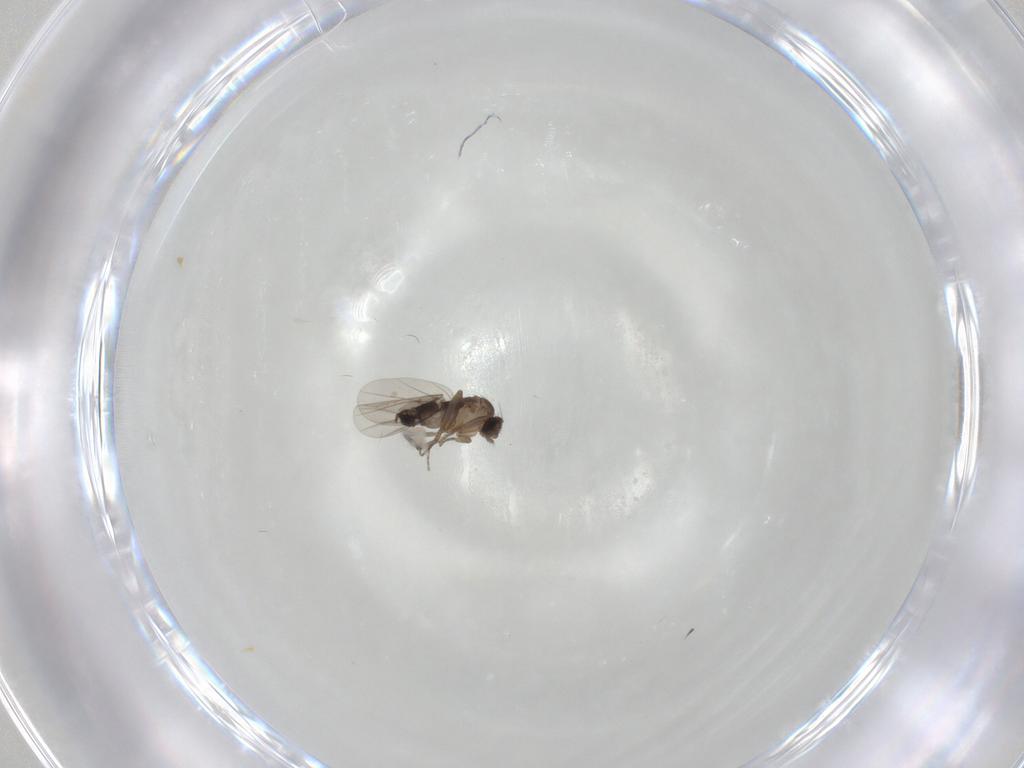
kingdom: Animalia
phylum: Arthropoda
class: Insecta
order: Diptera
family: Phoridae
